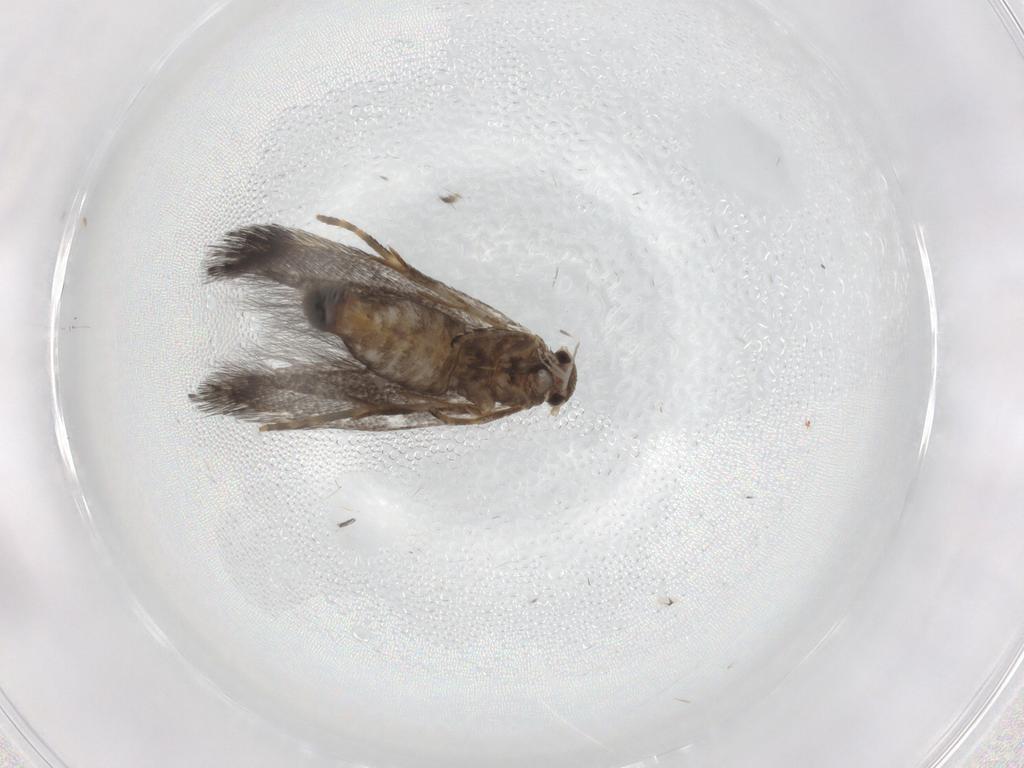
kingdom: Animalia
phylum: Arthropoda
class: Insecta
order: Lepidoptera
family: Elachistidae
